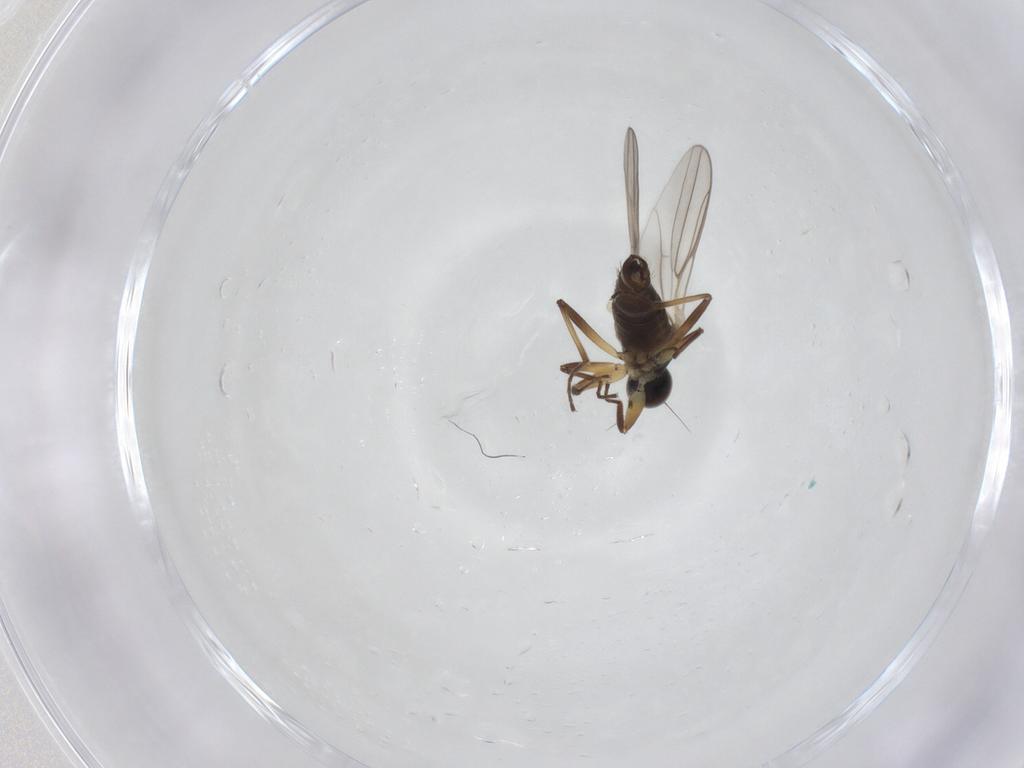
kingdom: Animalia
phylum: Arthropoda
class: Insecta
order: Diptera
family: Hybotidae
